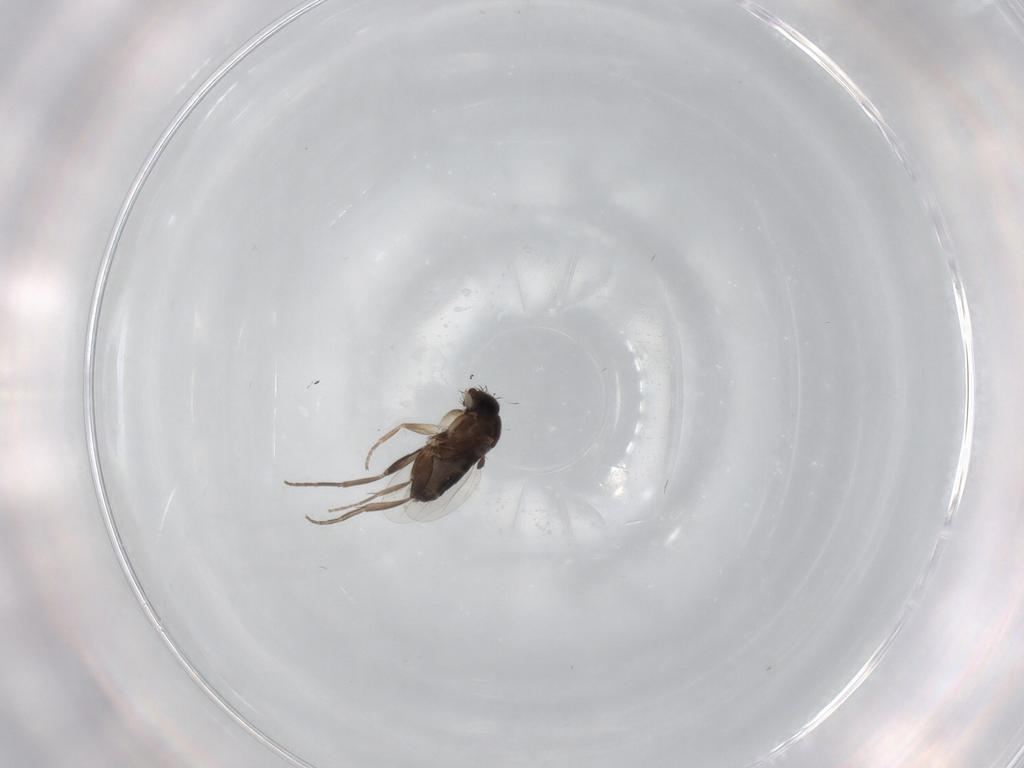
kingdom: Animalia
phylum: Arthropoda
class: Insecta
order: Diptera
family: Phoridae
